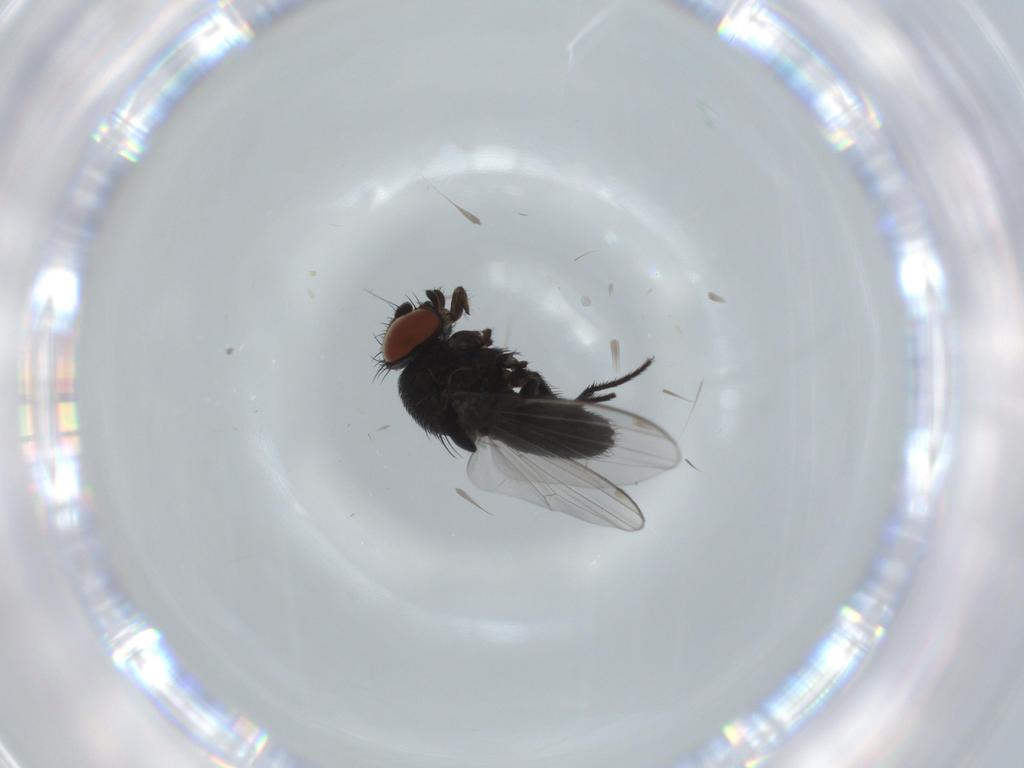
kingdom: Animalia
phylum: Arthropoda
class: Insecta
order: Diptera
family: Milichiidae
